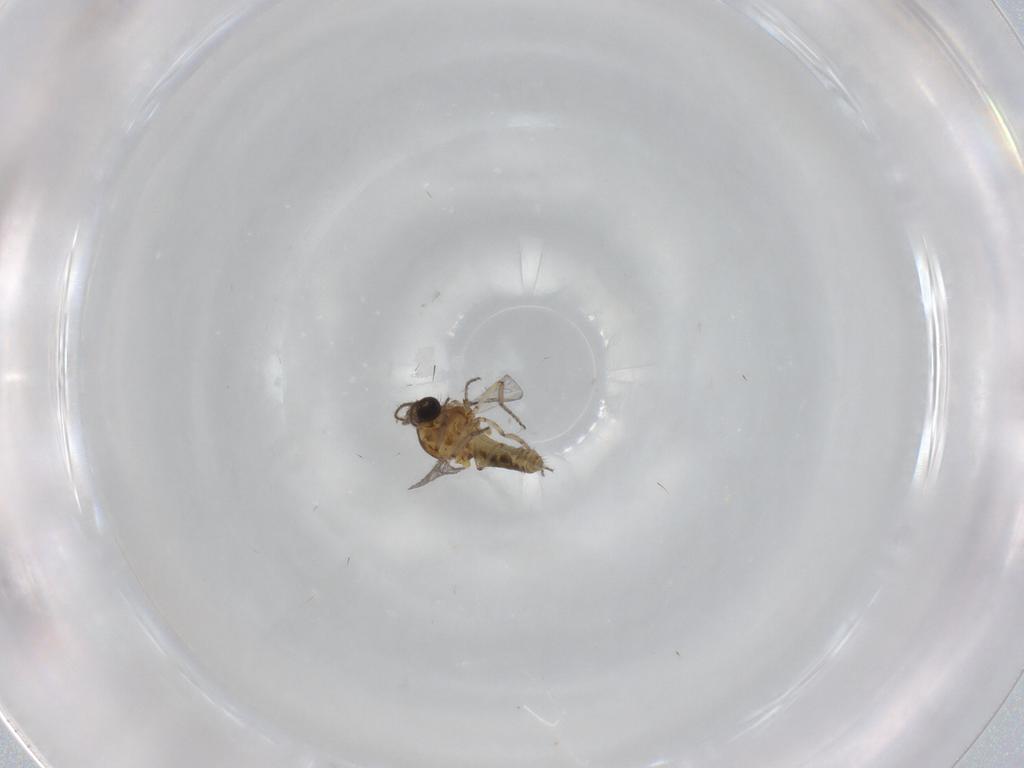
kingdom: Animalia
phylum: Arthropoda
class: Insecta
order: Diptera
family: Ceratopogonidae
